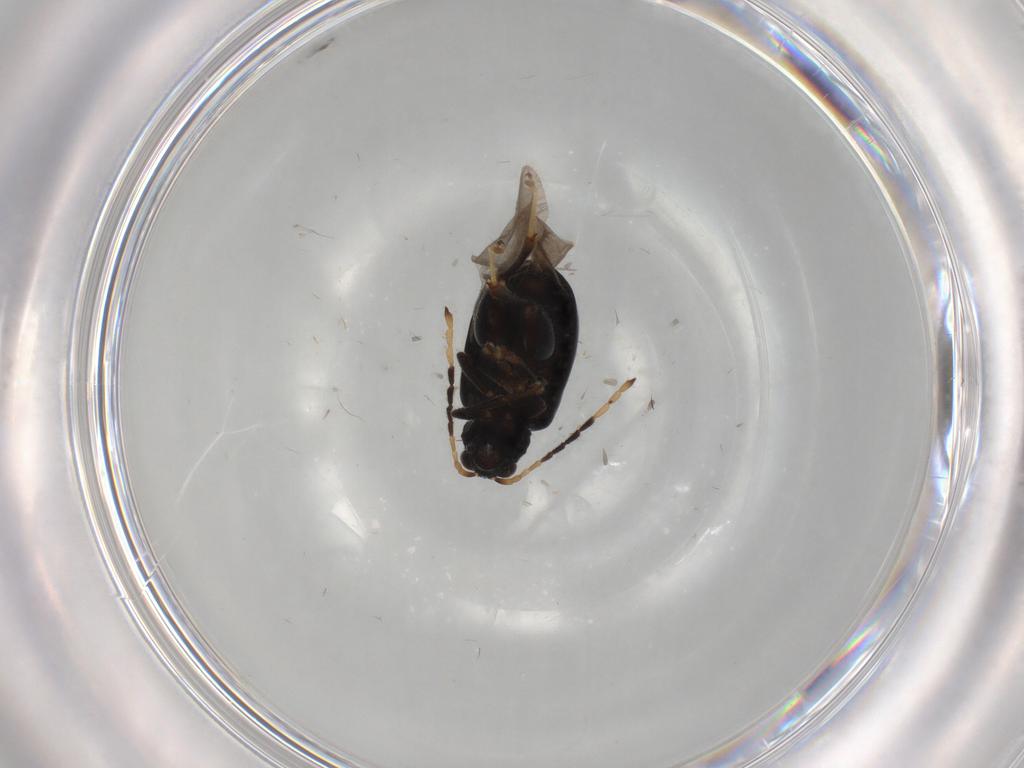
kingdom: Animalia
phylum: Arthropoda
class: Insecta
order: Coleoptera
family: Chrysomelidae
